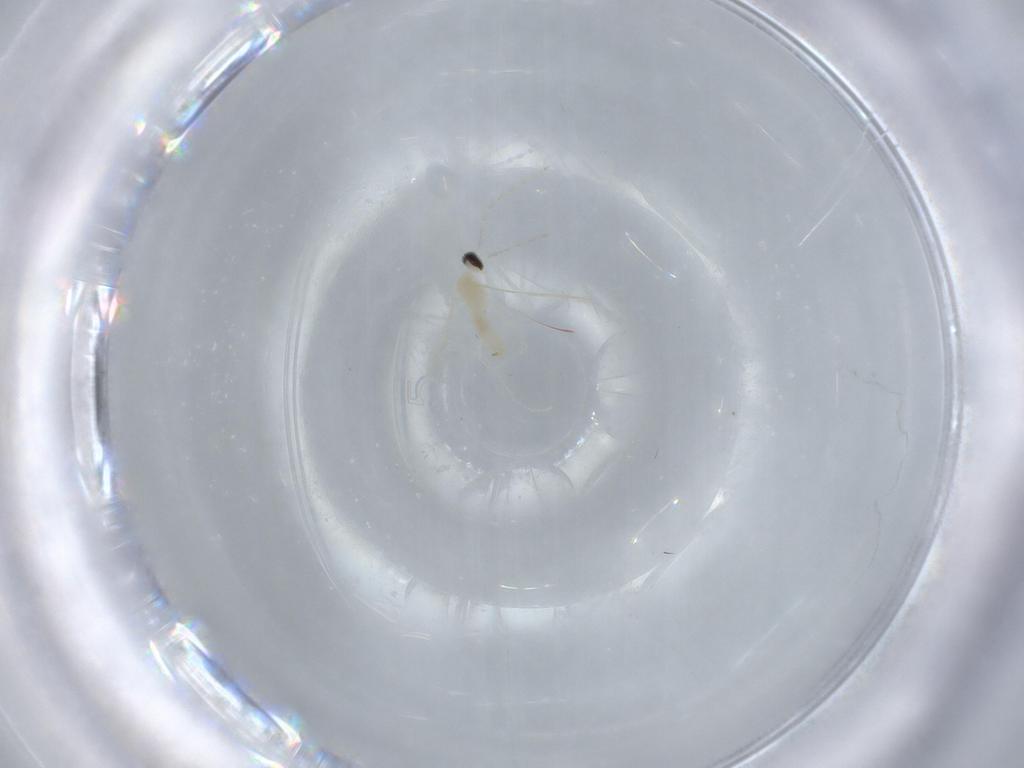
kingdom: Animalia
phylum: Arthropoda
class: Insecta
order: Diptera
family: Cecidomyiidae
